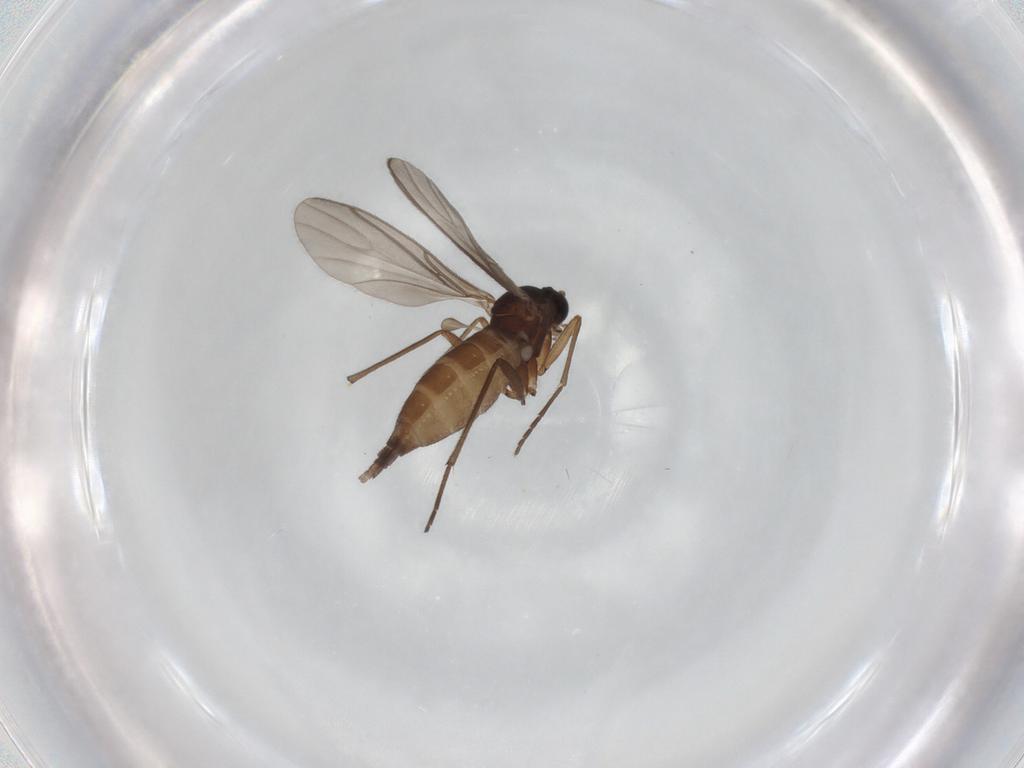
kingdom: Animalia
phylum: Arthropoda
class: Insecta
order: Diptera
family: Sciaridae
